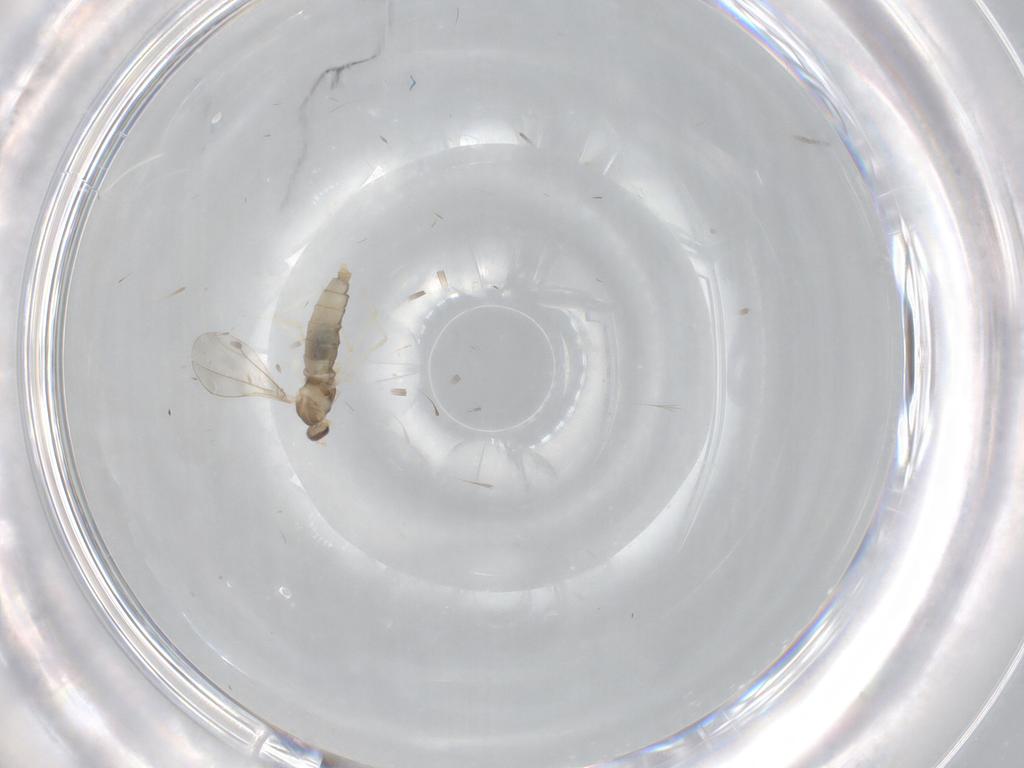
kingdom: Animalia
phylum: Arthropoda
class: Insecta
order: Diptera
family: Cecidomyiidae
